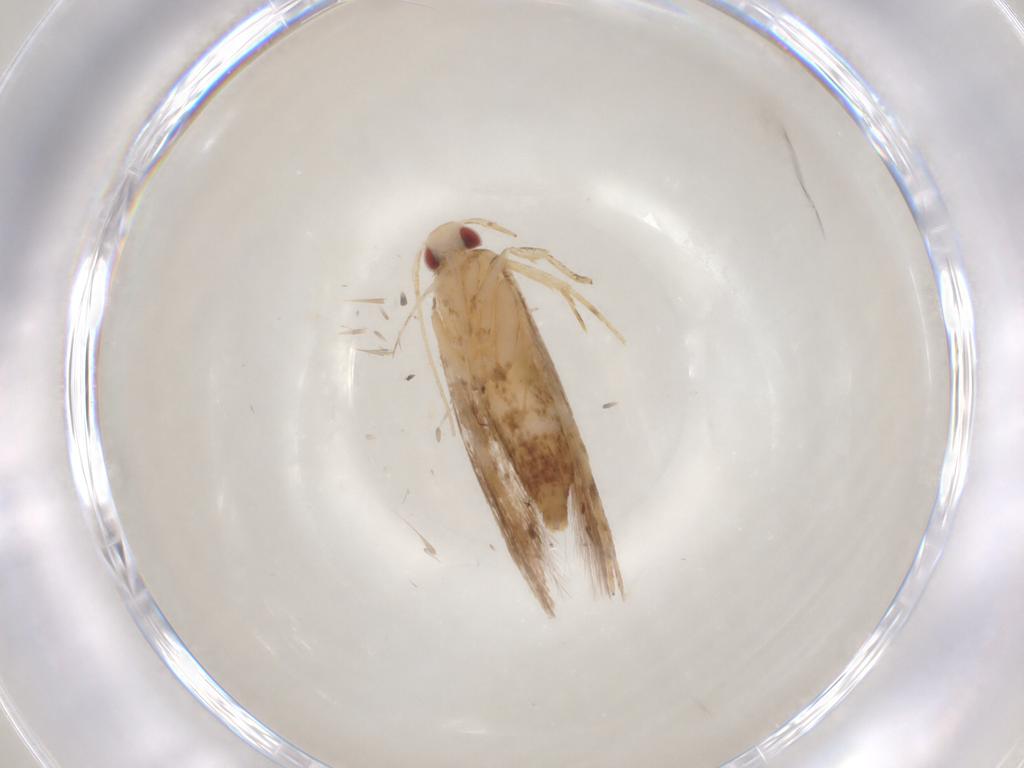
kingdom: Animalia
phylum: Arthropoda
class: Insecta
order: Lepidoptera
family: Cosmopterigidae
